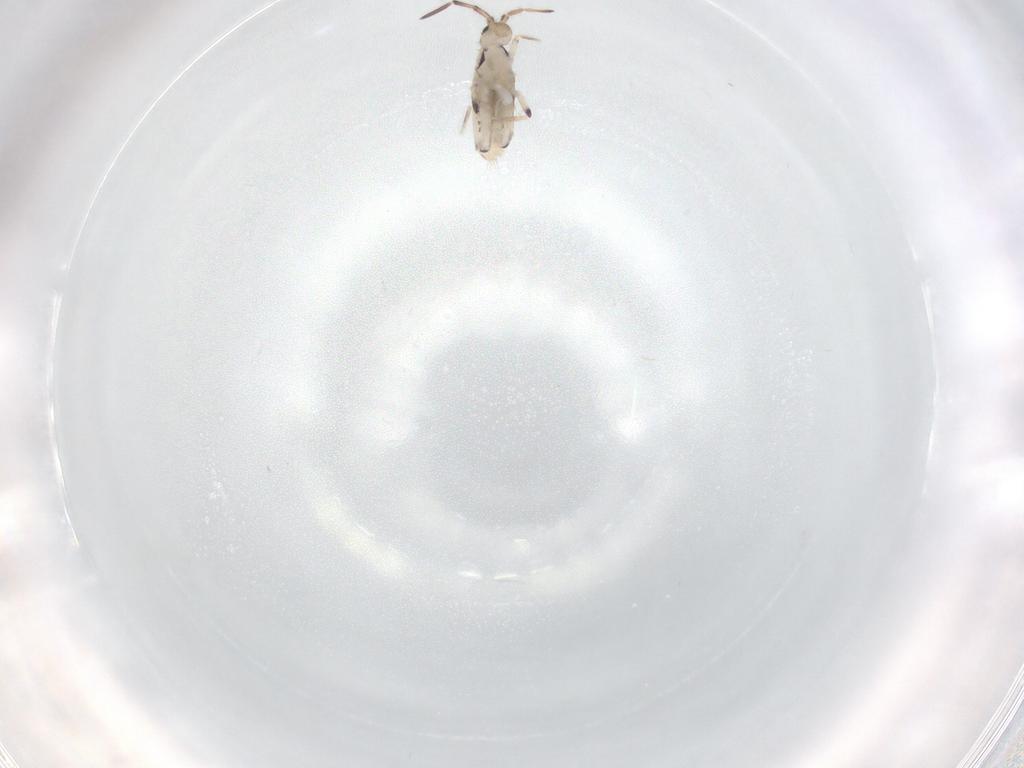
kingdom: Animalia
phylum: Arthropoda
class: Collembola
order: Entomobryomorpha
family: Entomobryidae
